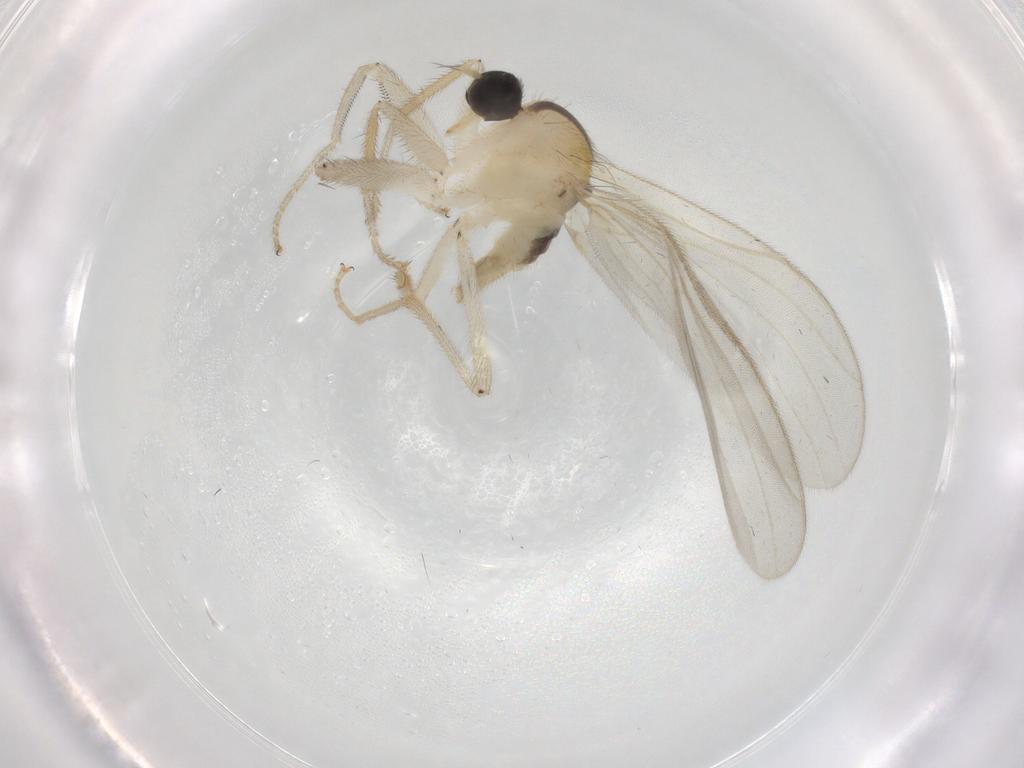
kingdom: Animalia
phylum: Arthropoda
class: Insecta
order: Diptera
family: Hybotidae
